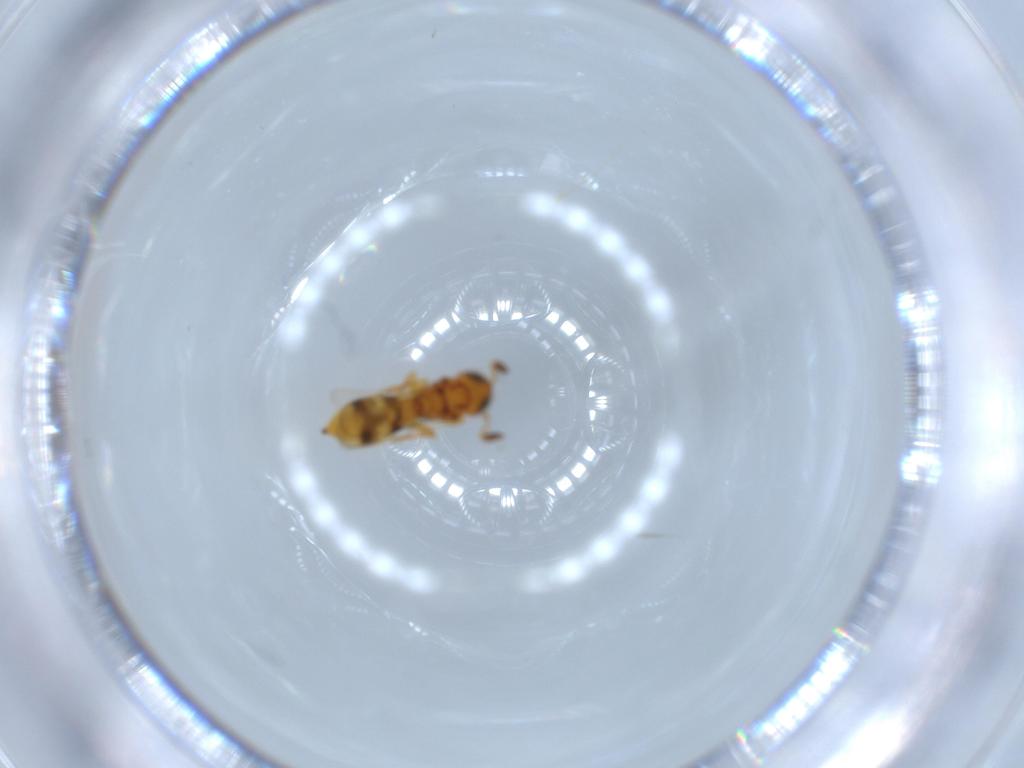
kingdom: Animalia
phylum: Arthropoda
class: Insecta
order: Hymenoptera
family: Scelionidae
